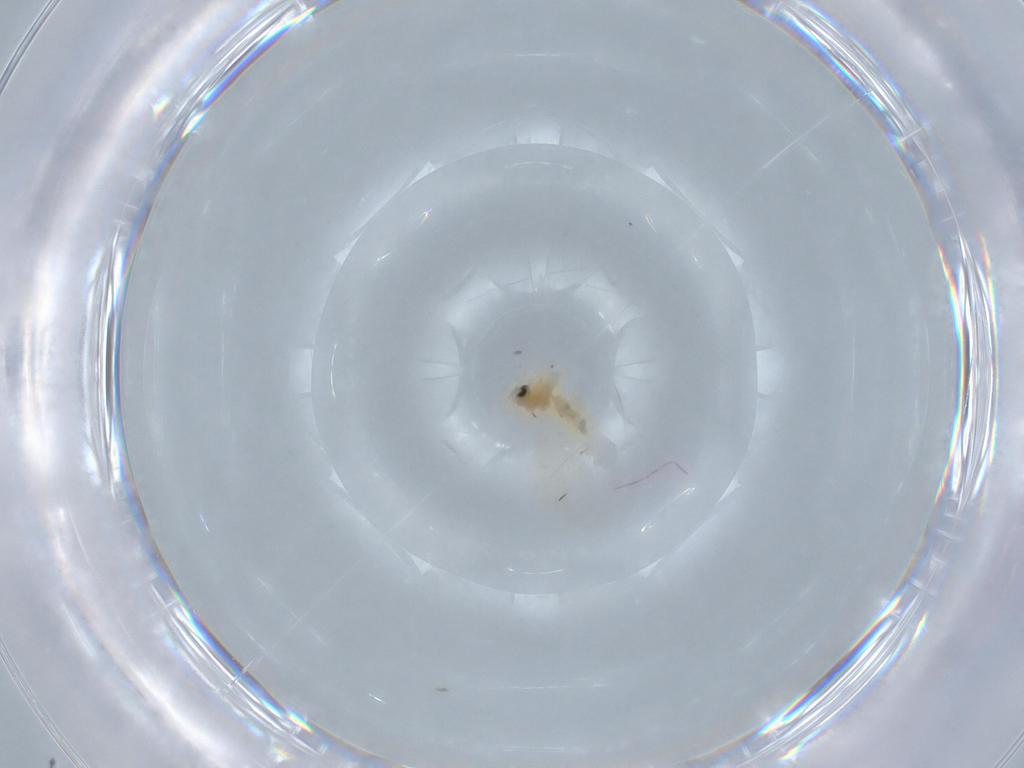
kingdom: Animalia
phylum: Arthropoda
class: Insecta
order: Hemiptera
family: Aleyrodidae
